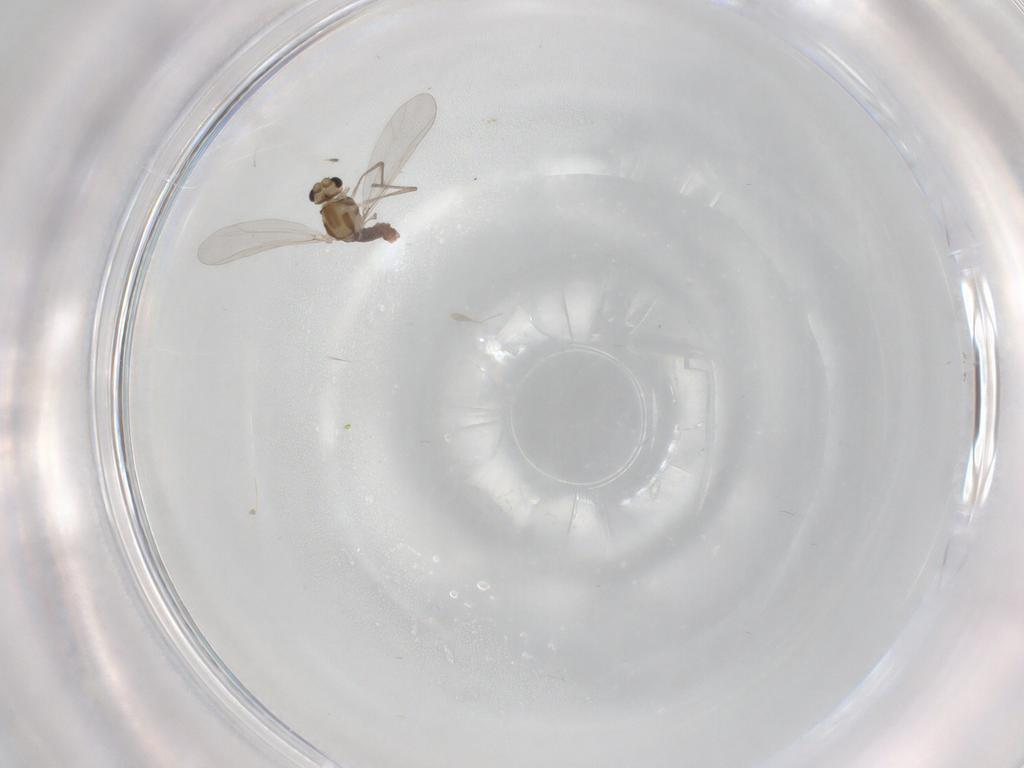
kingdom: Animalia
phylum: Arthropoda
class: Insecta
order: Diptera
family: Chironomidae
